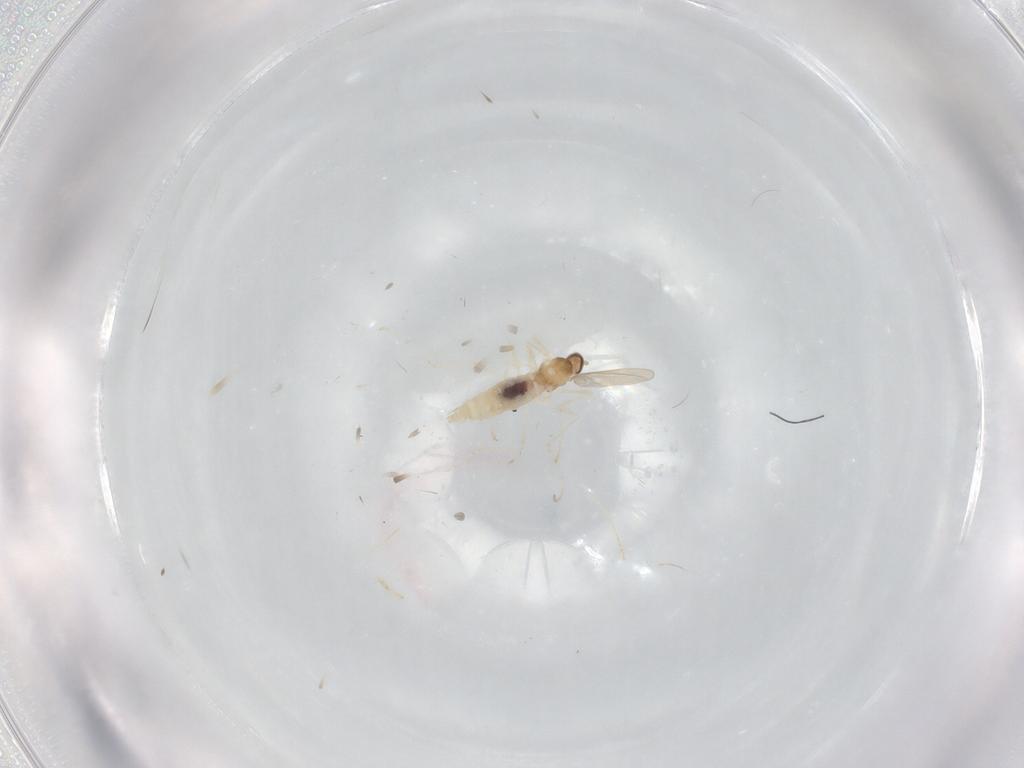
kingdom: Animalia
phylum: Arthropoda
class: Insecta
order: Diptera
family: Cecidomyiidae
